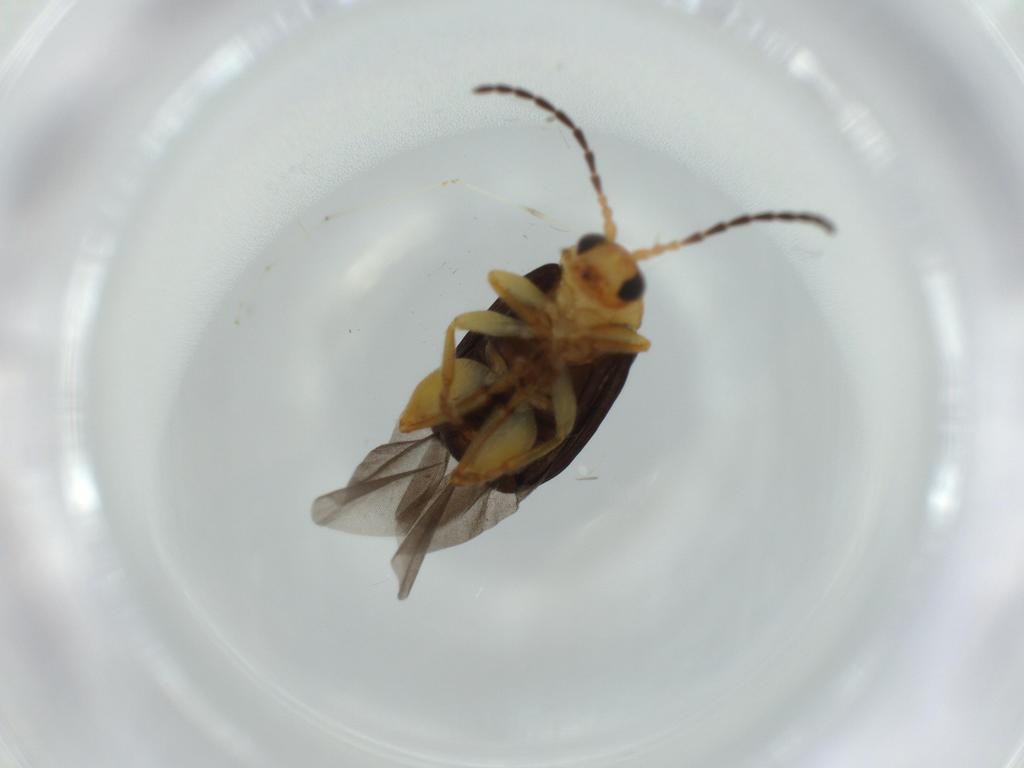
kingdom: Animalia
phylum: Arthropoda
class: Insecta
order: Coleoptera
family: Chrysomelidae
